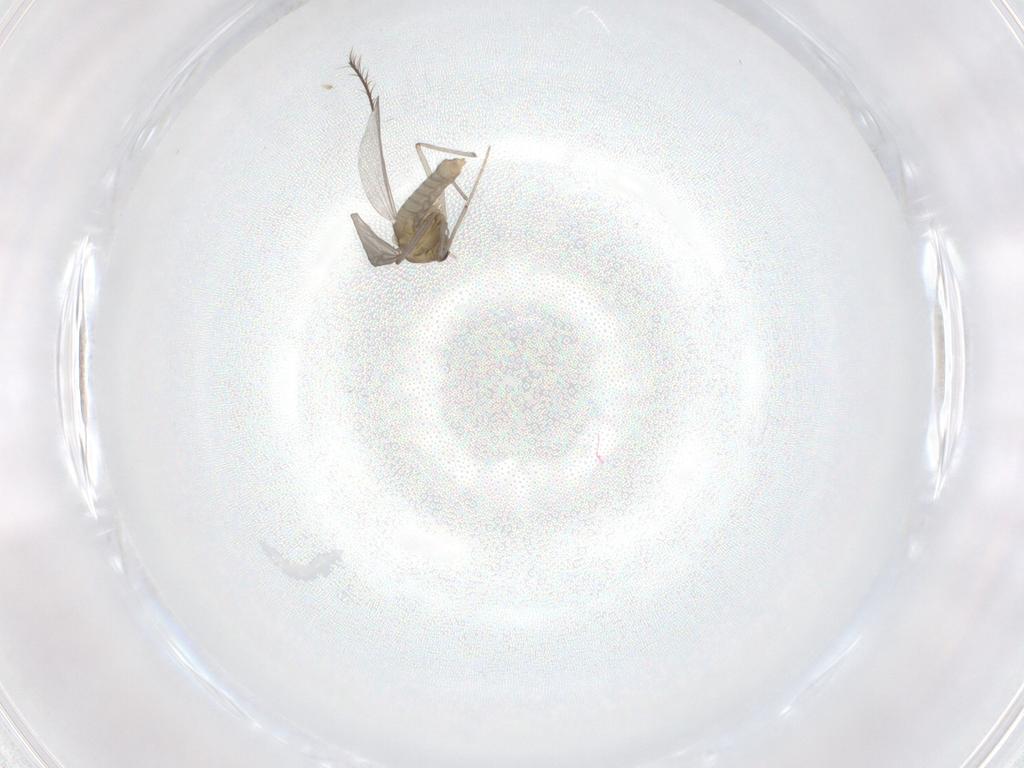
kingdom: Animalia
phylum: Arthropoda
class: Insecta
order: Diptera
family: Chironomidae
